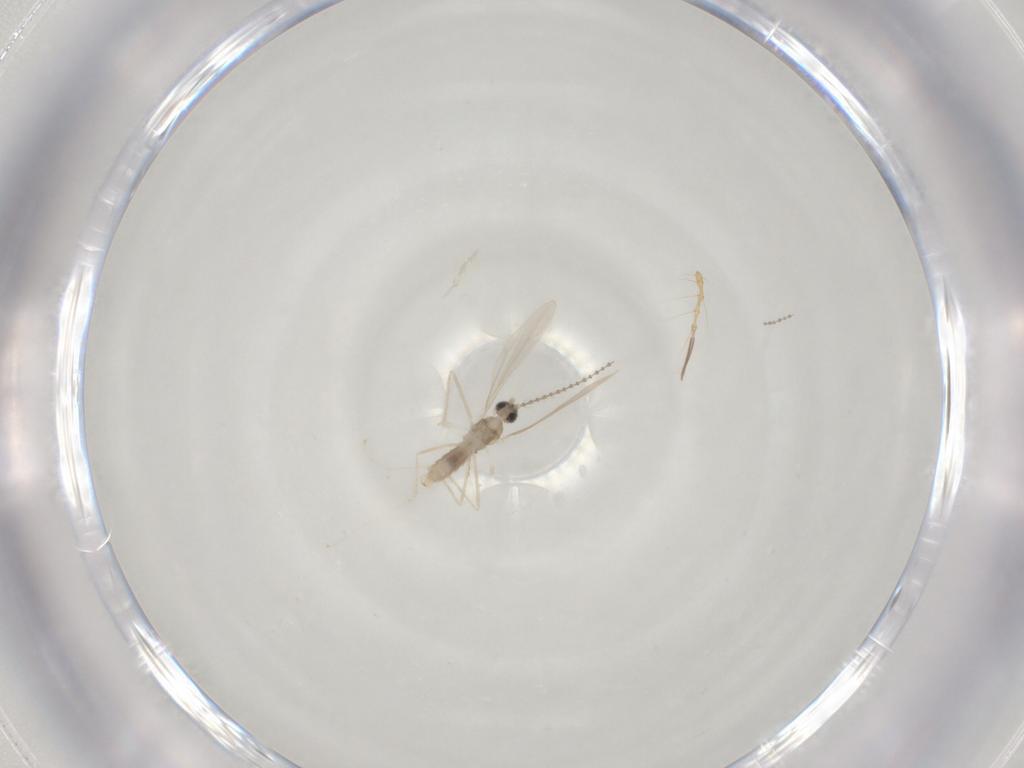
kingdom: Animalia
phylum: Arthropoda
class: Insecta
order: Diptera
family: Cecidomyiidae
